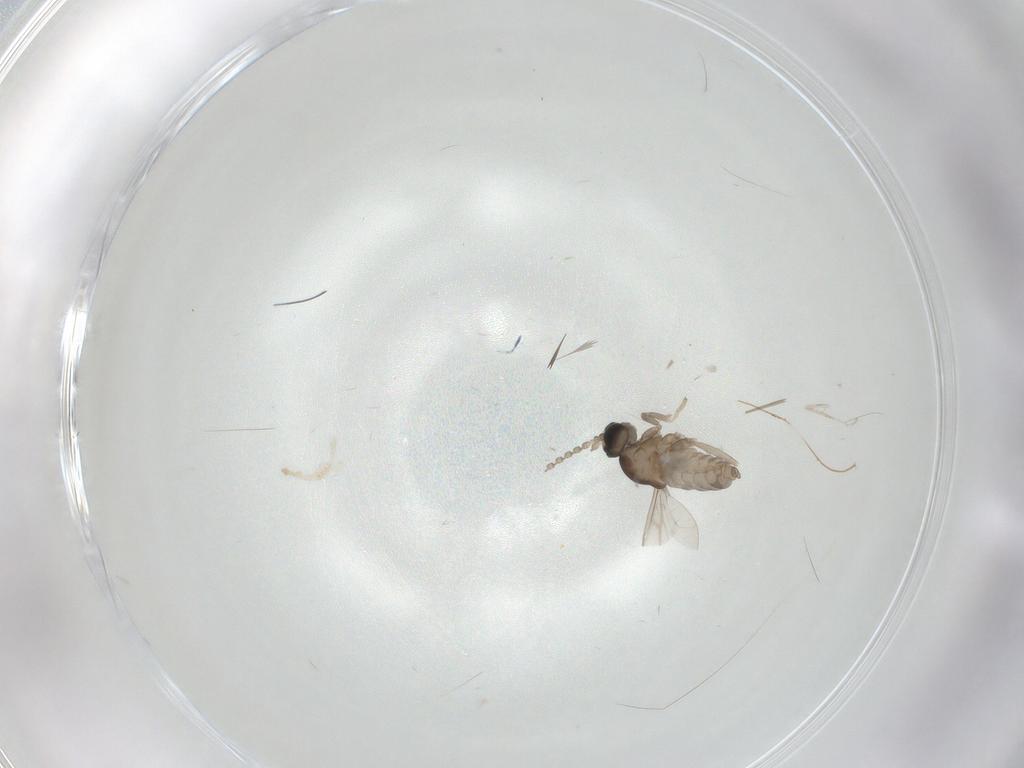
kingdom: Animalia
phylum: Arthropoda
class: Insecta
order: Diptera
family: Cecidomyiidae
